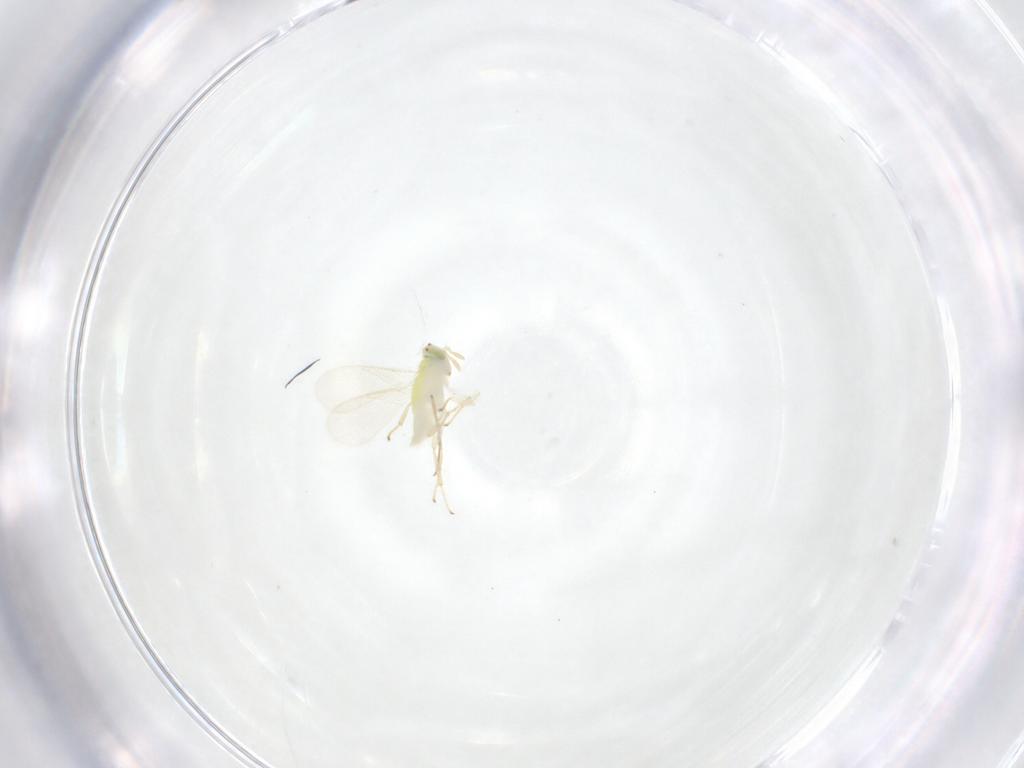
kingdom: Animalia
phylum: Arthropoda
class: Insecta
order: Hymenoptera
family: Aphelinidae
